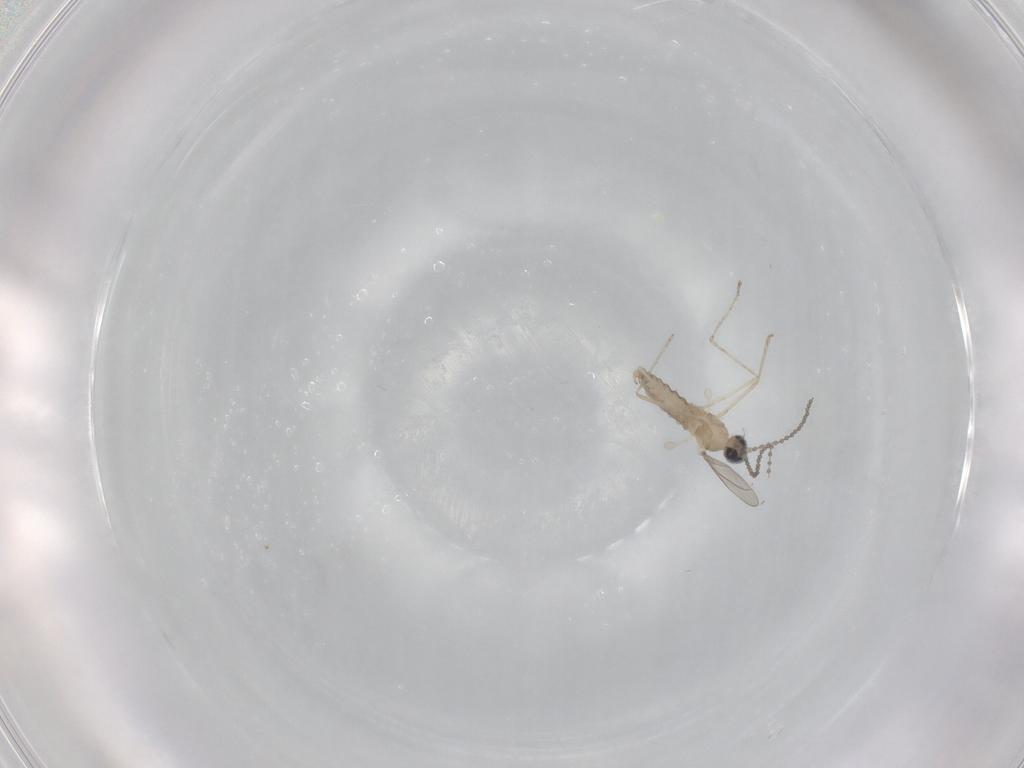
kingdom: Animalia
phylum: Arthropoda
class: Insecta
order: Diptera
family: Cecidomyiidae
